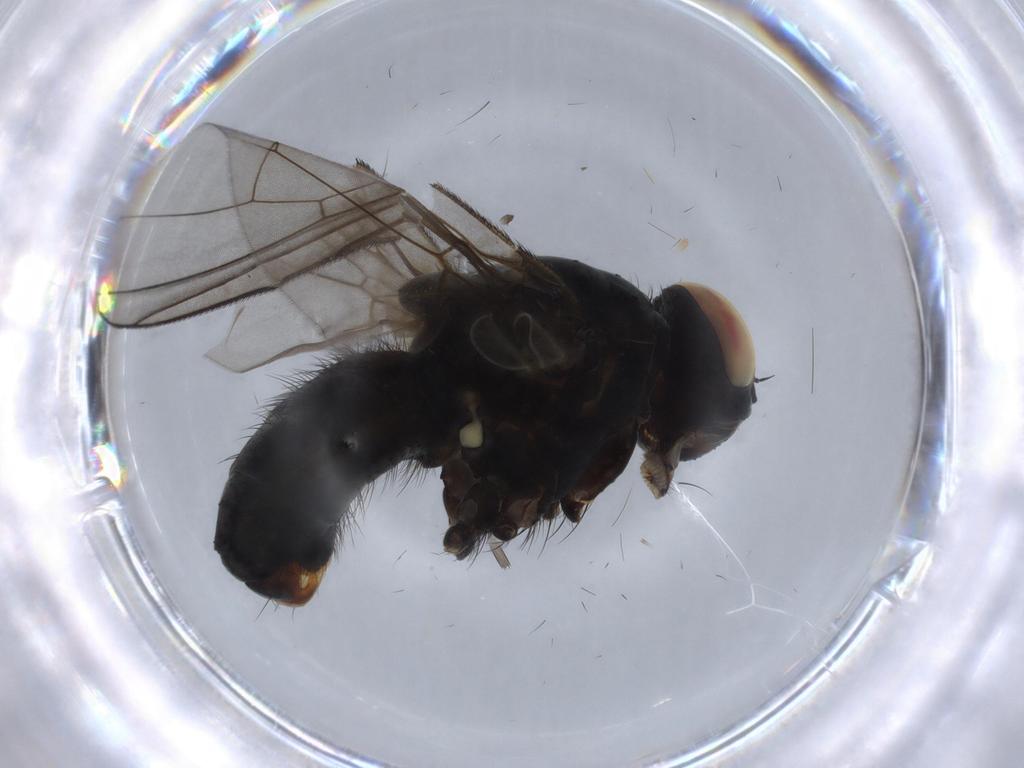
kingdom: Animalia
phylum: Arthropoda
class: Insecta
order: Diptera
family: Muscidae
